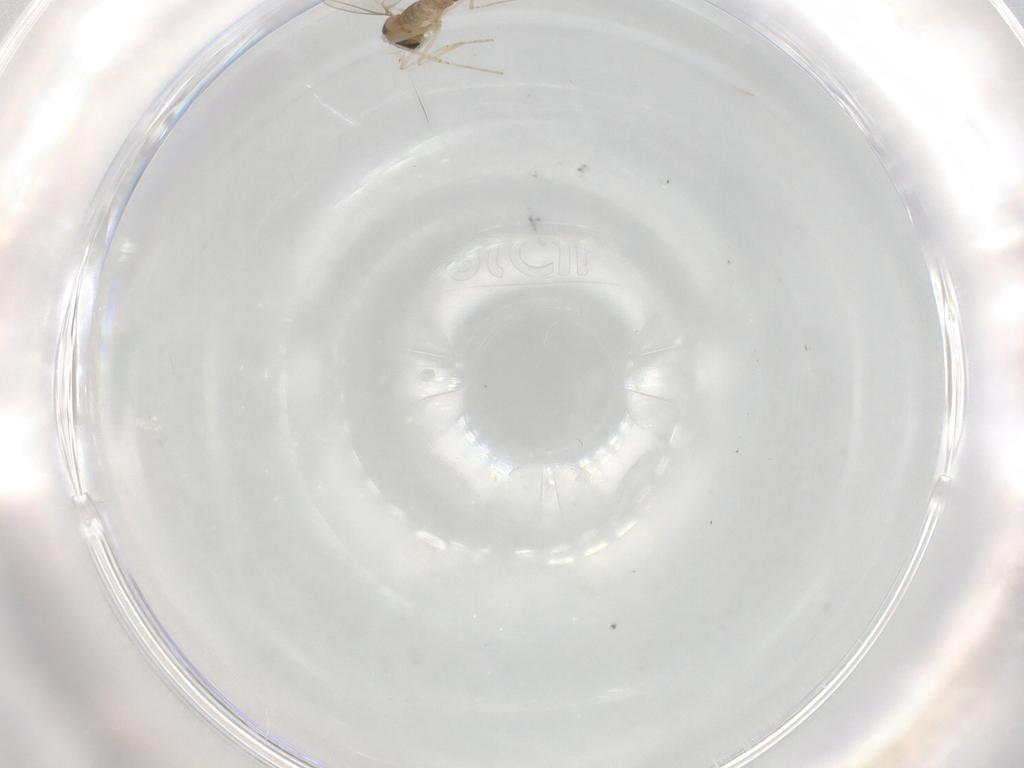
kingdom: Animalia
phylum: Arthropoda
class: Insecta
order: Diptera
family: Cecidomyiidae
